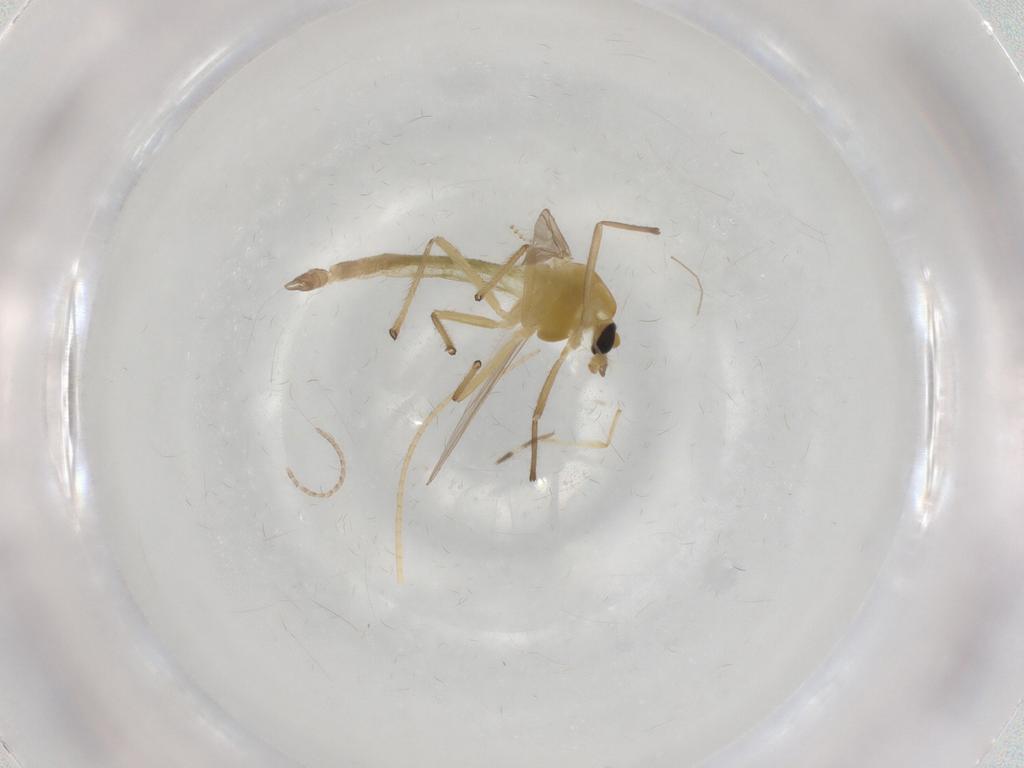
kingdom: Animalia
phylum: Arthropoda
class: Insecta
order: Diptera
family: Chironomidae
